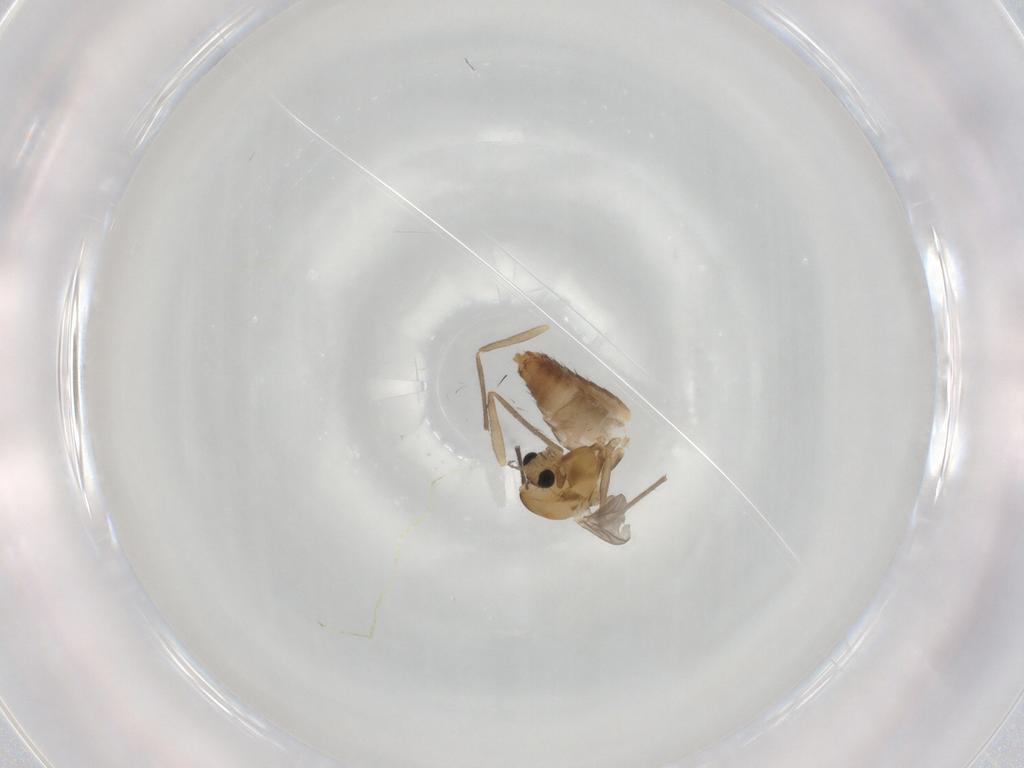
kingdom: Animalia
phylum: Arthropoda
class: Insecta
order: Diptera
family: Chironomidae
